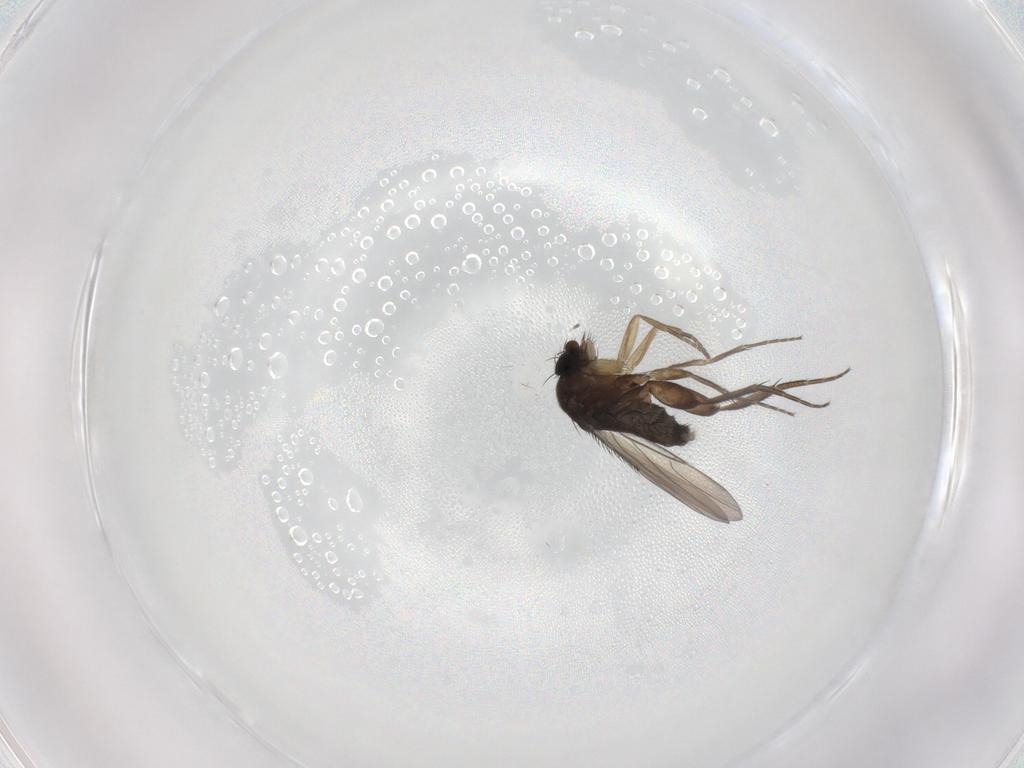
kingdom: Animalia
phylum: Arthropoda
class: Insecta
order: Diptera
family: Phoridae
